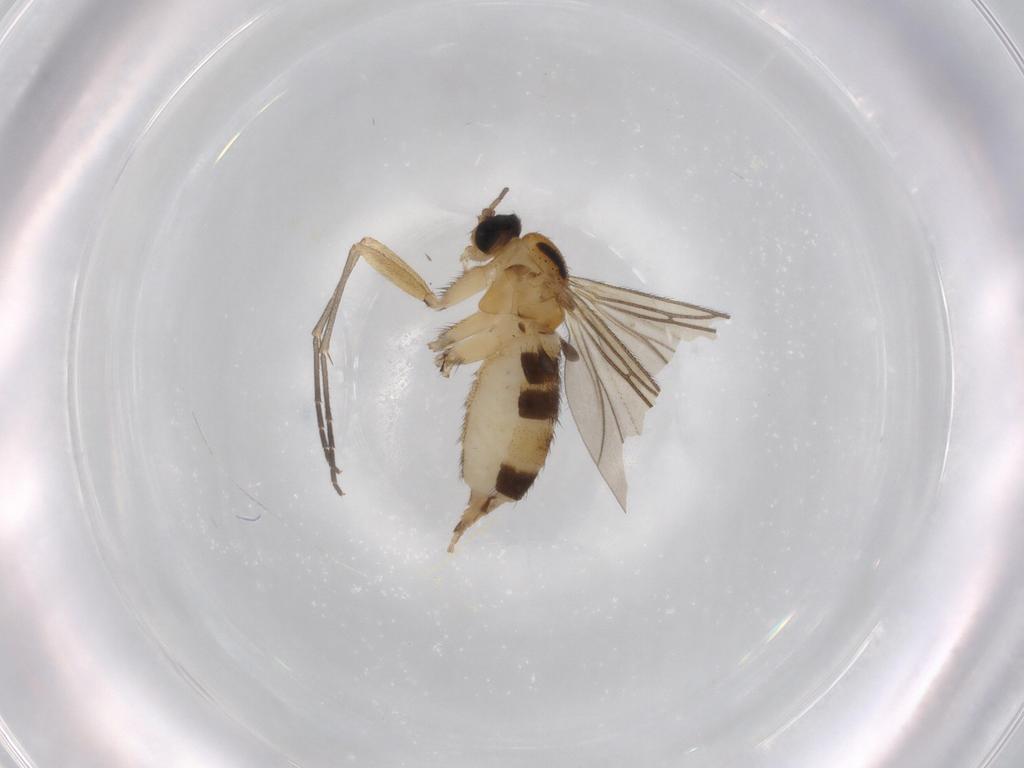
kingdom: Animalia
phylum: Arthropoda
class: Insecta
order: Diptera
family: Sciaridae
